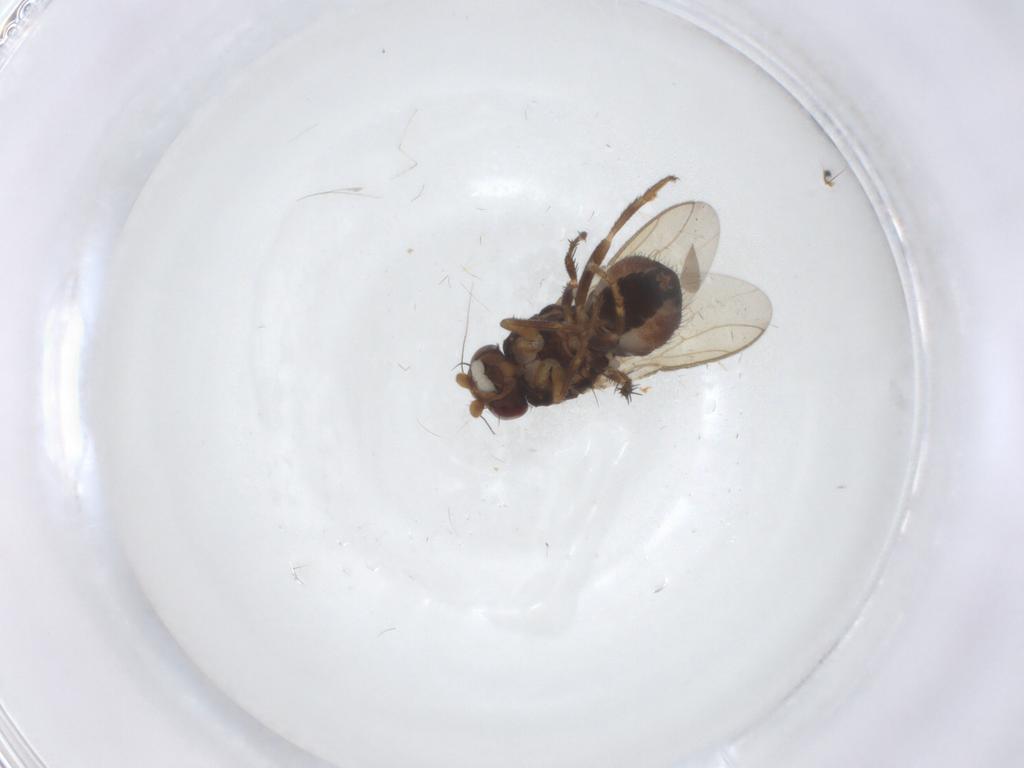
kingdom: Animalia
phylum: Arthropoda
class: Insecta
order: Diptera
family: Sphaeroceridae
